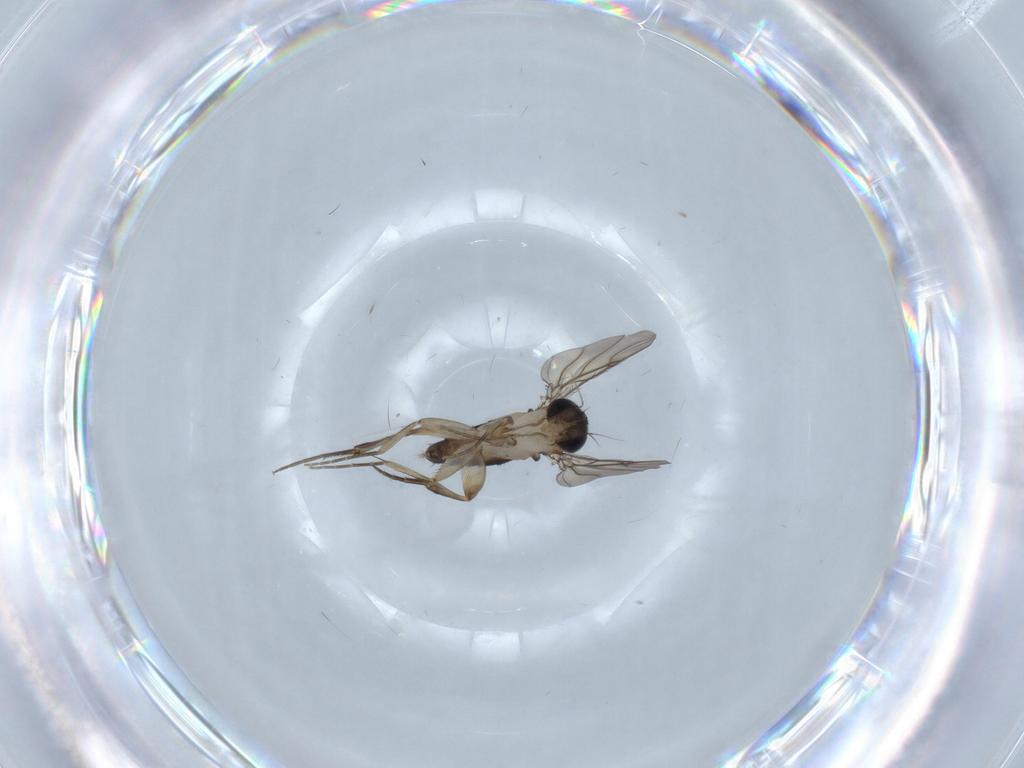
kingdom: Animalia
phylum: Arthropoda
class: Insecta
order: Diptera
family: Phoridae
